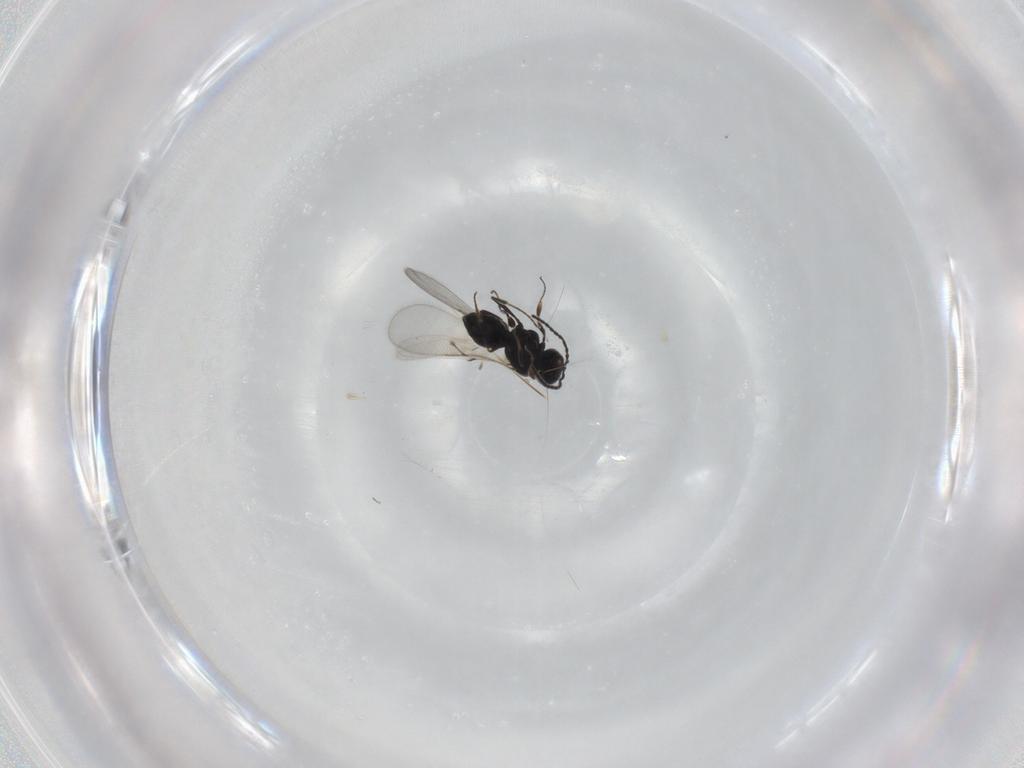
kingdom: Animalia
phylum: Arthropoda
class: Insecta
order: Hymenoptera
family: Scelionidae
